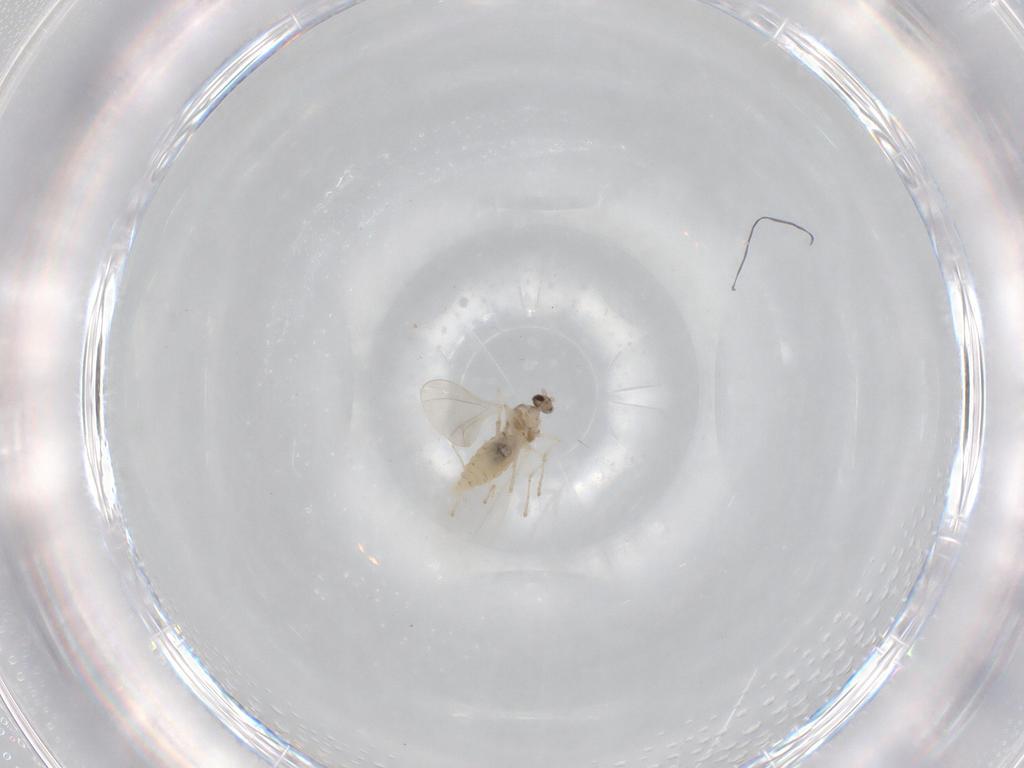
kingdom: Animalia
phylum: Arthropoda
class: Insecta
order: Diptera
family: Cecidomyiidae
